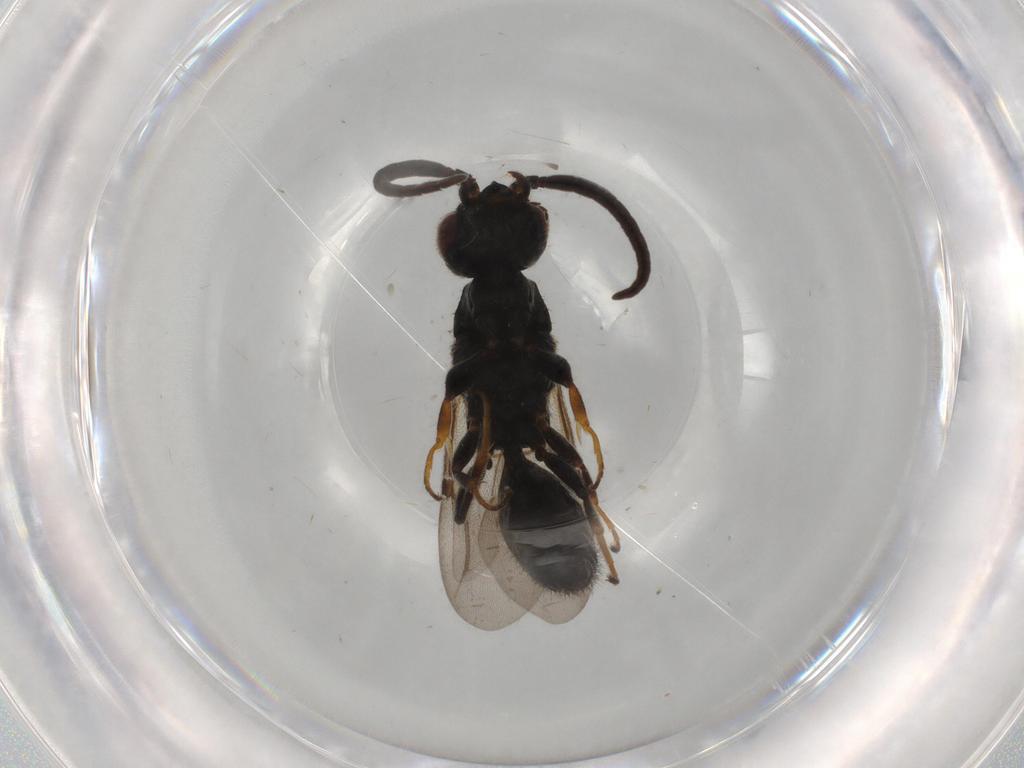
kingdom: Animalia
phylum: Arthropoda
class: Insecta
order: Hymenoptera
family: Bethylidae
